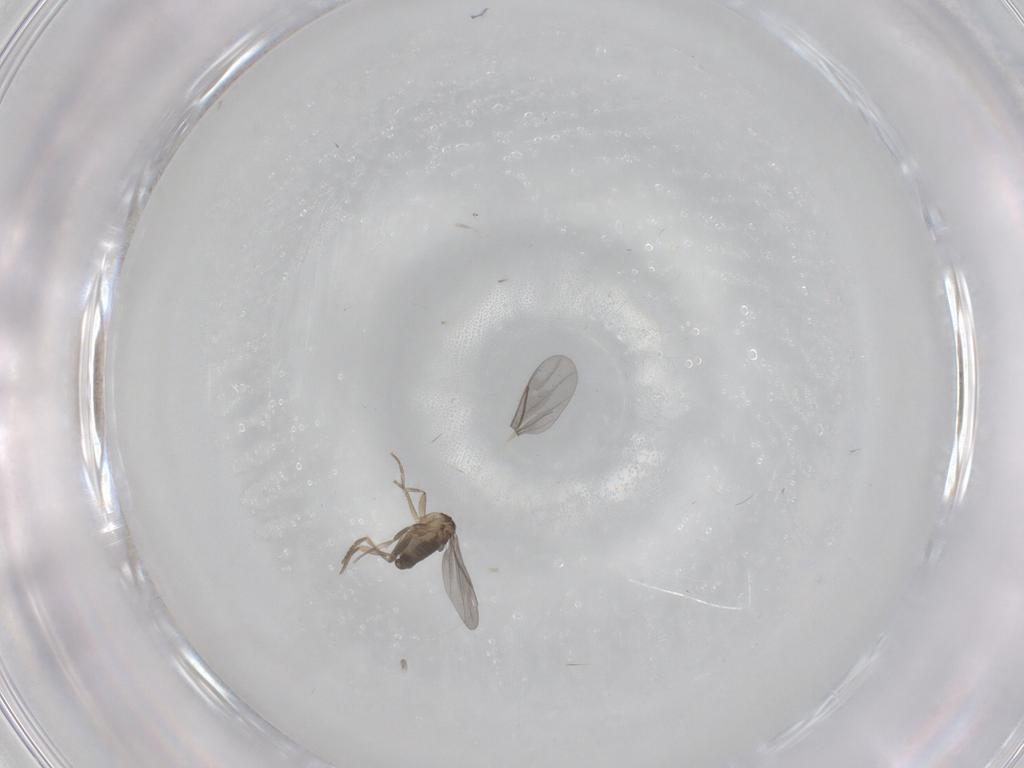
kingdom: Animalia
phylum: Arthropoda
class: Insecta
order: Diptera
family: Ceratopogonidae
